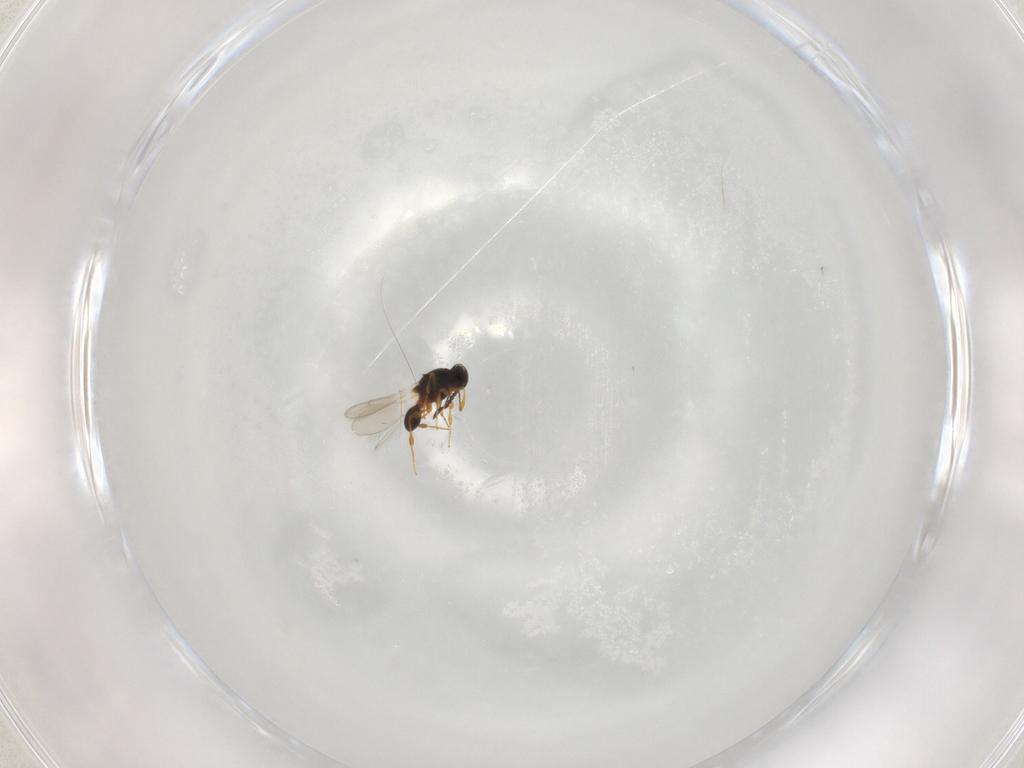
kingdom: Animalia
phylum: Arthropoda
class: Insecta
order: Hymenoptera
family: Platygastridae
